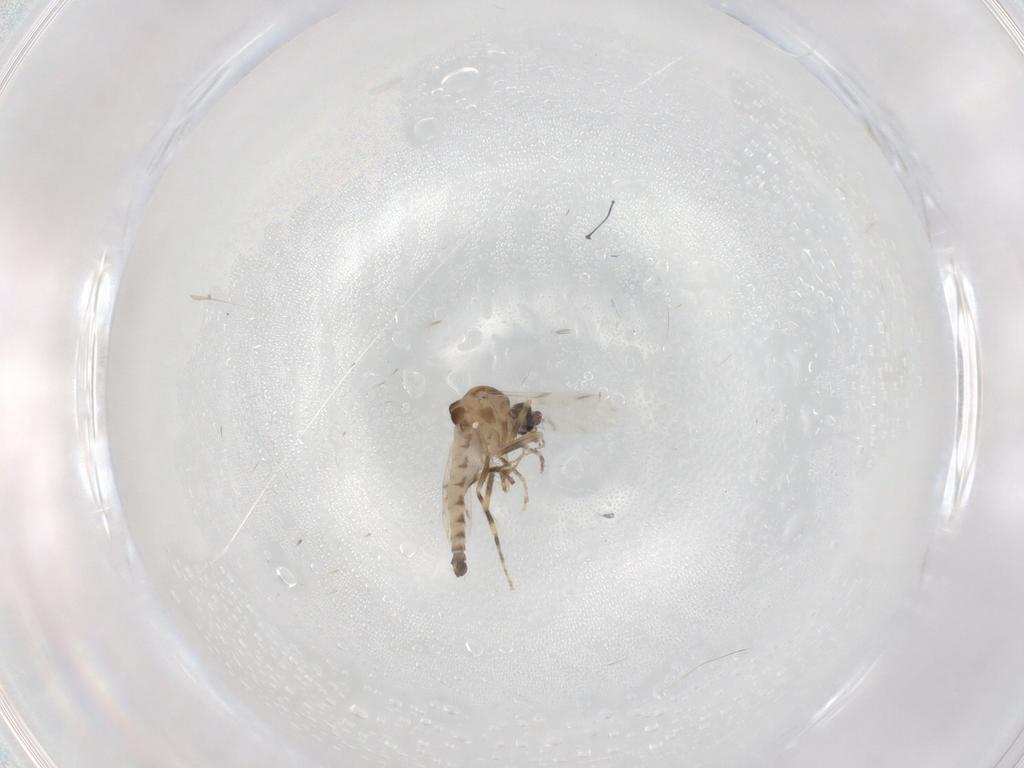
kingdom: Animalia
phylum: Arthropoda
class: Insecta
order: Diptera
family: Ceratopogonidae
